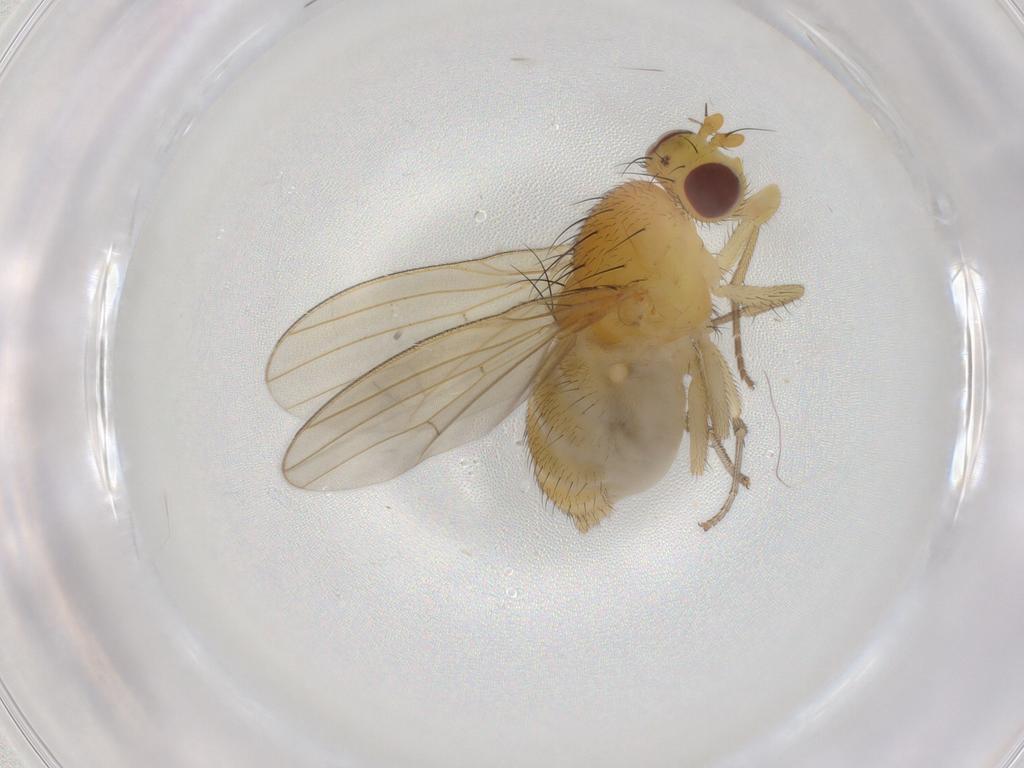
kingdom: Animalia
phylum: Arthropoda
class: Insecta
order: Diptera
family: Cecidomyiidae
